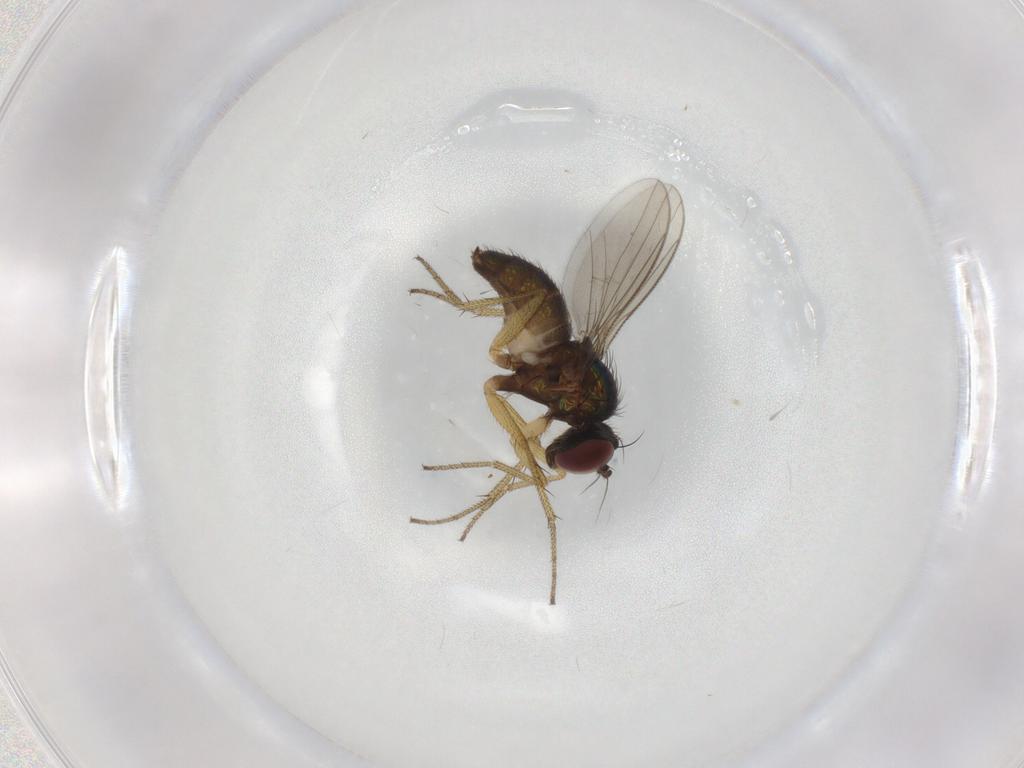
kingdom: Animalia
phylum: Arthropoda
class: Insecta
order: Diptera
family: Dolichopodidae
